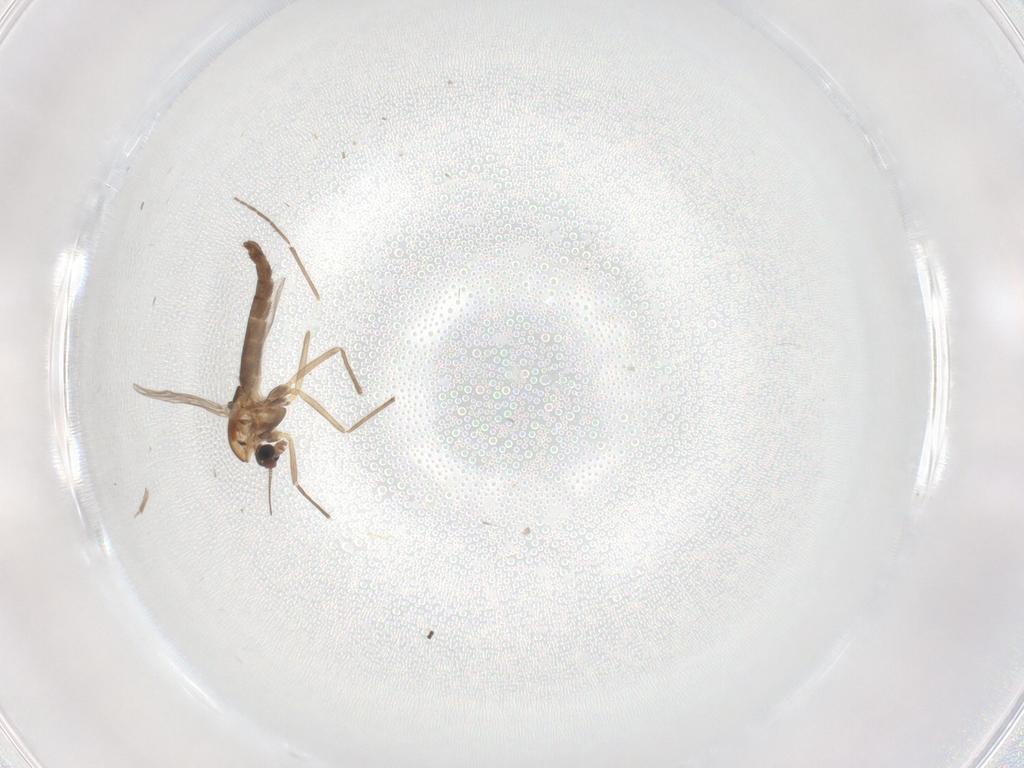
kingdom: Animalia
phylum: Arthropoda
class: Insecta
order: Diptera
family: Chironomidae
